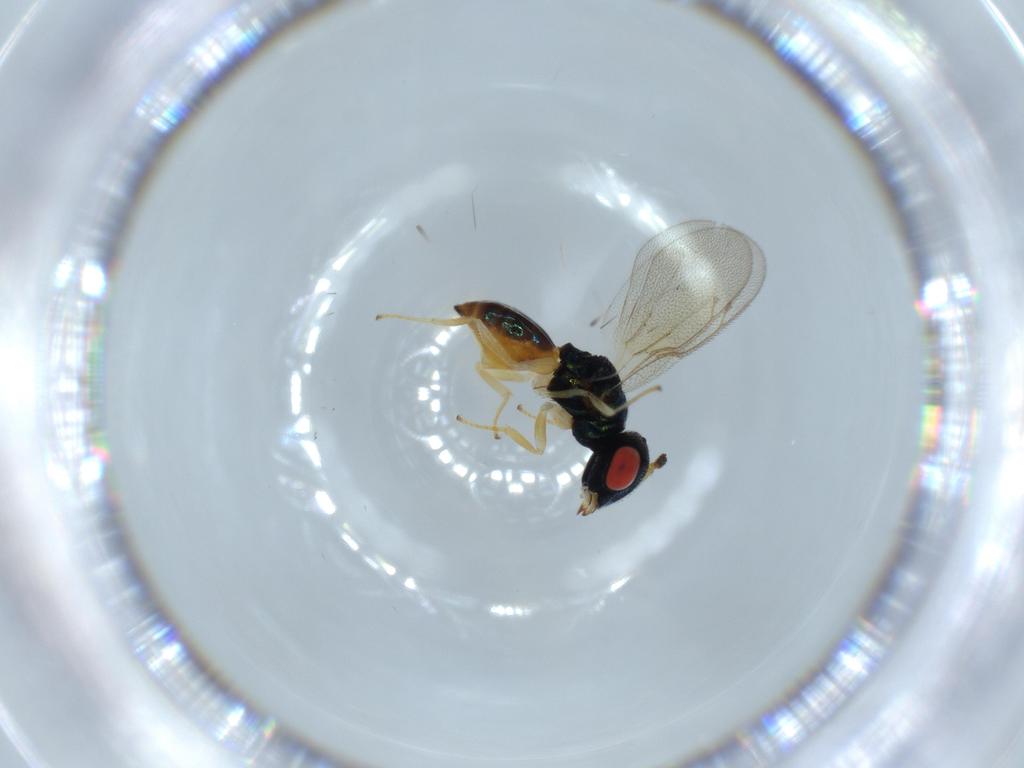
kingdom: Animalia
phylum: Arthropoda
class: Insecta
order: Hymenoptera
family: Pteromalidae
